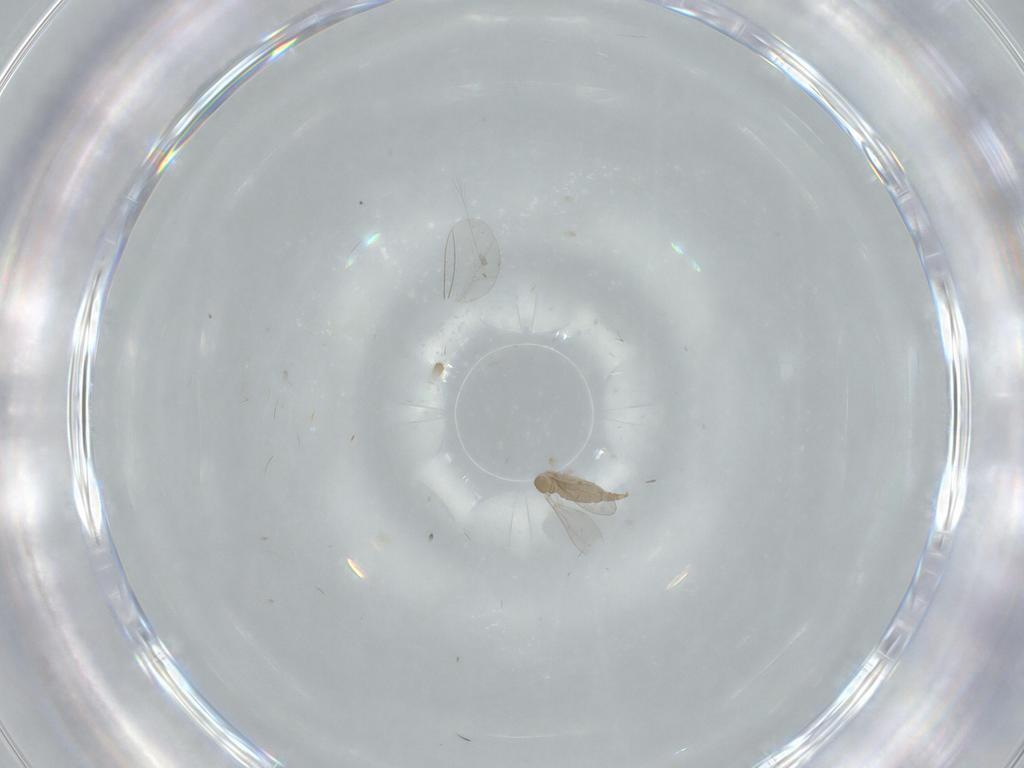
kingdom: Animalia
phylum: Arthropoda
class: Insecta
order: Diptera
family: Cecidomyiidae
